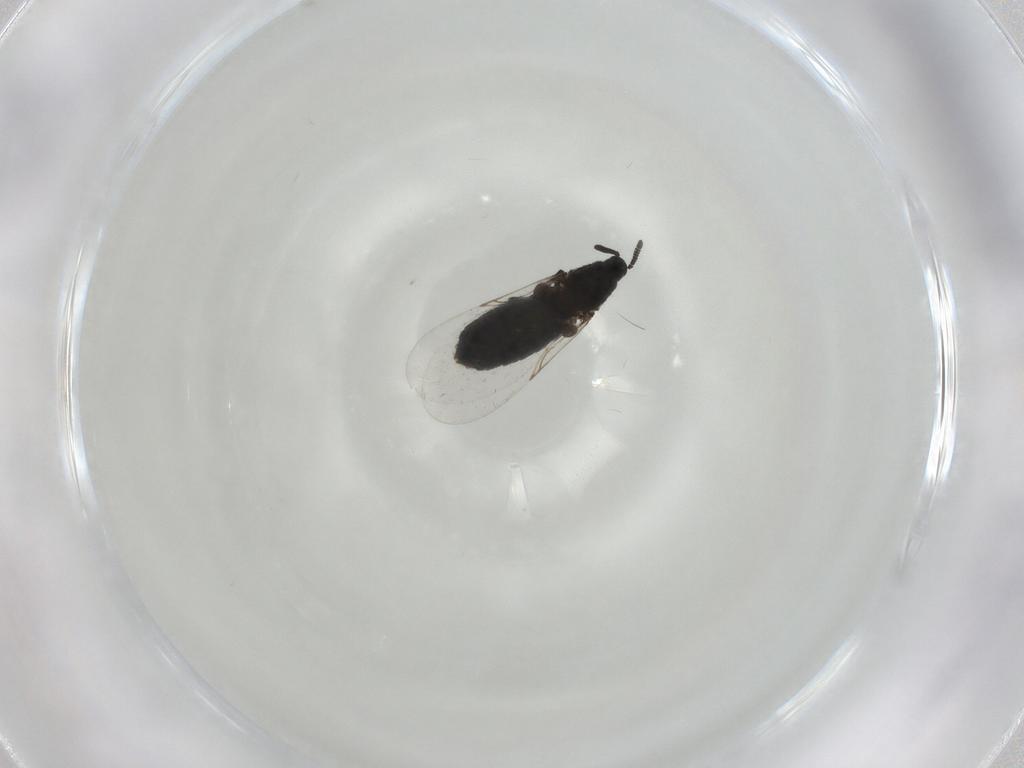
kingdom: Animalia
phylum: Arthropoda
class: Insecta
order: Diptera
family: Scatopsidae
